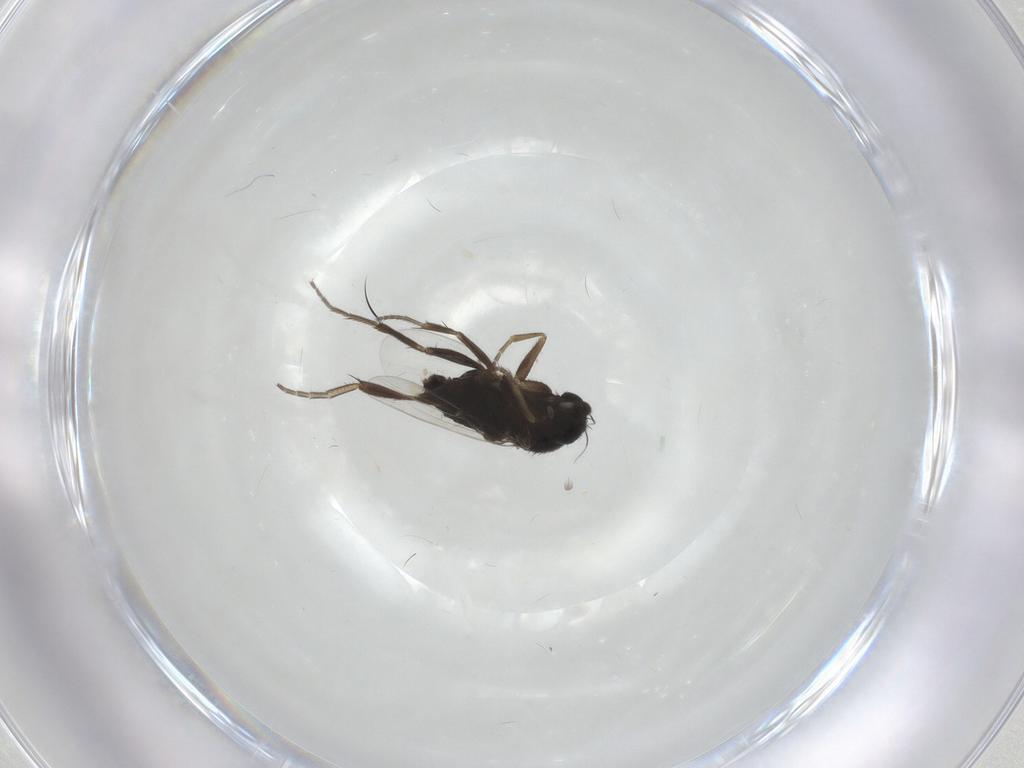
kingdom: Animalia
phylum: Arthropoda
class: Insecta
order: Diptera
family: Phoridae
